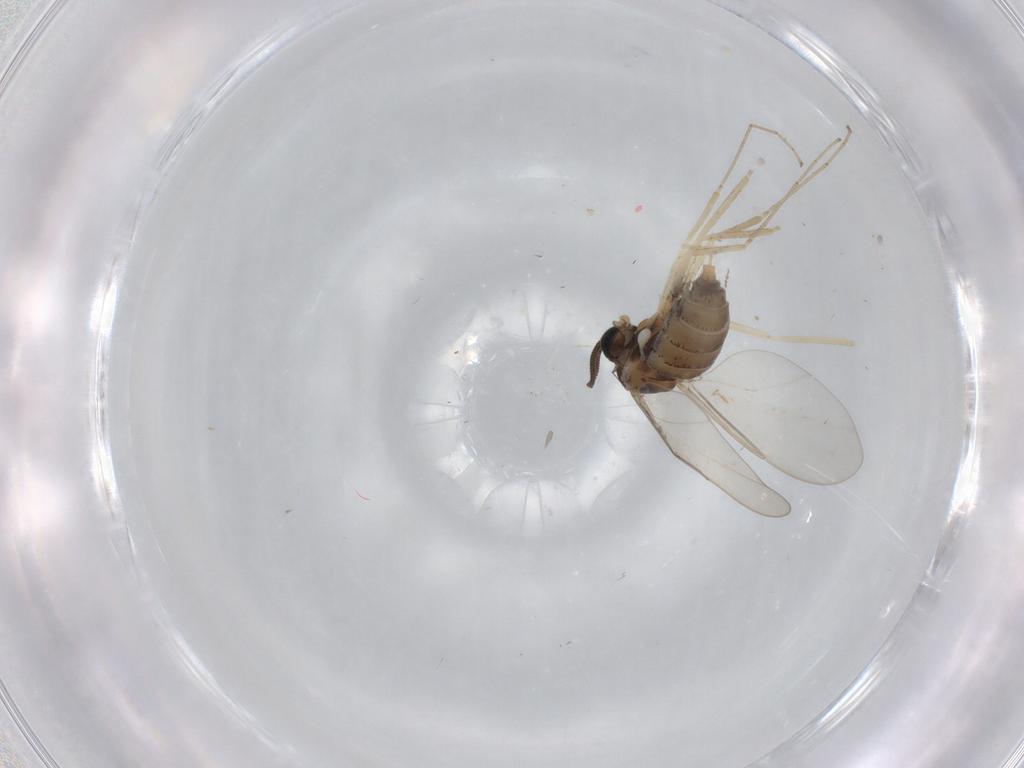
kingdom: Animalia
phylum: Arthropoda
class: Insecta
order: Diptera
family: Cecidomyiidae
